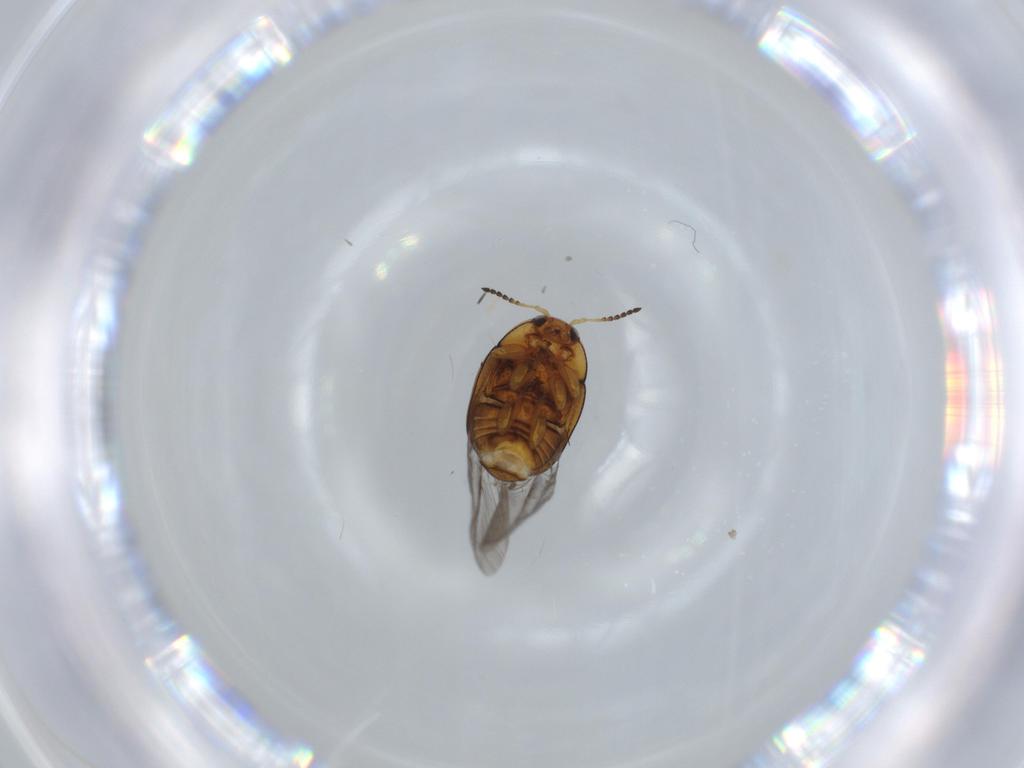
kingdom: Animalia
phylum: Arthropoda
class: Insecta
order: Coleoptera
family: Chrysomelidae
